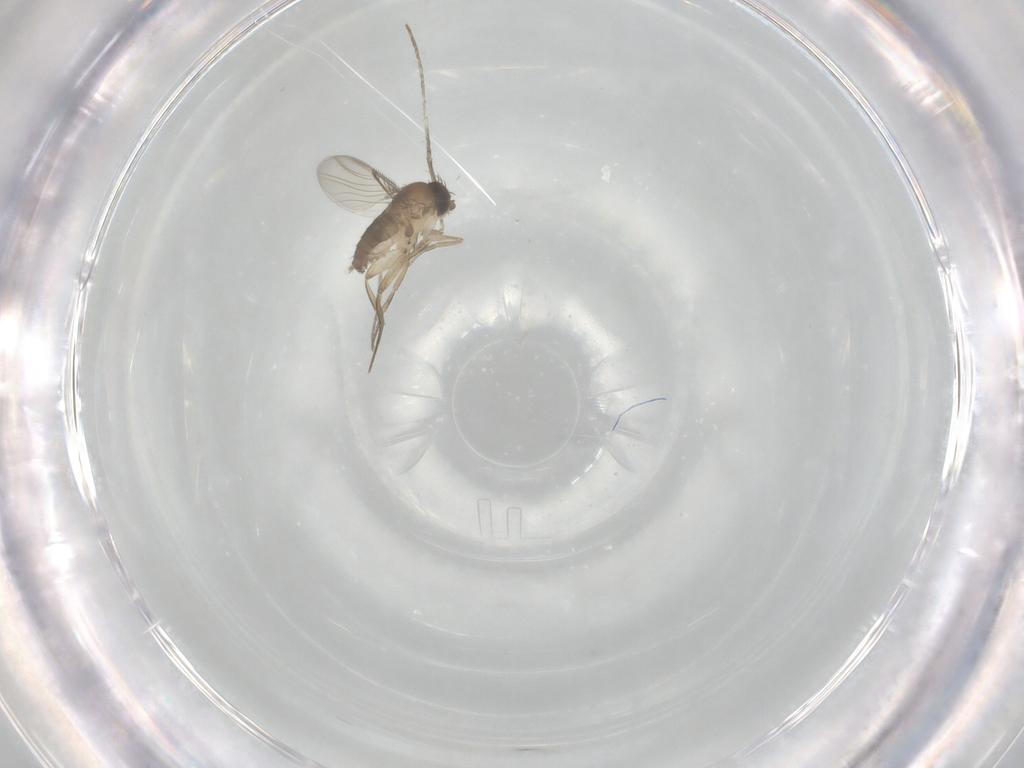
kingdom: Animalia
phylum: Arthropoda
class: Insecta
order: Diptera
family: Phoridae
